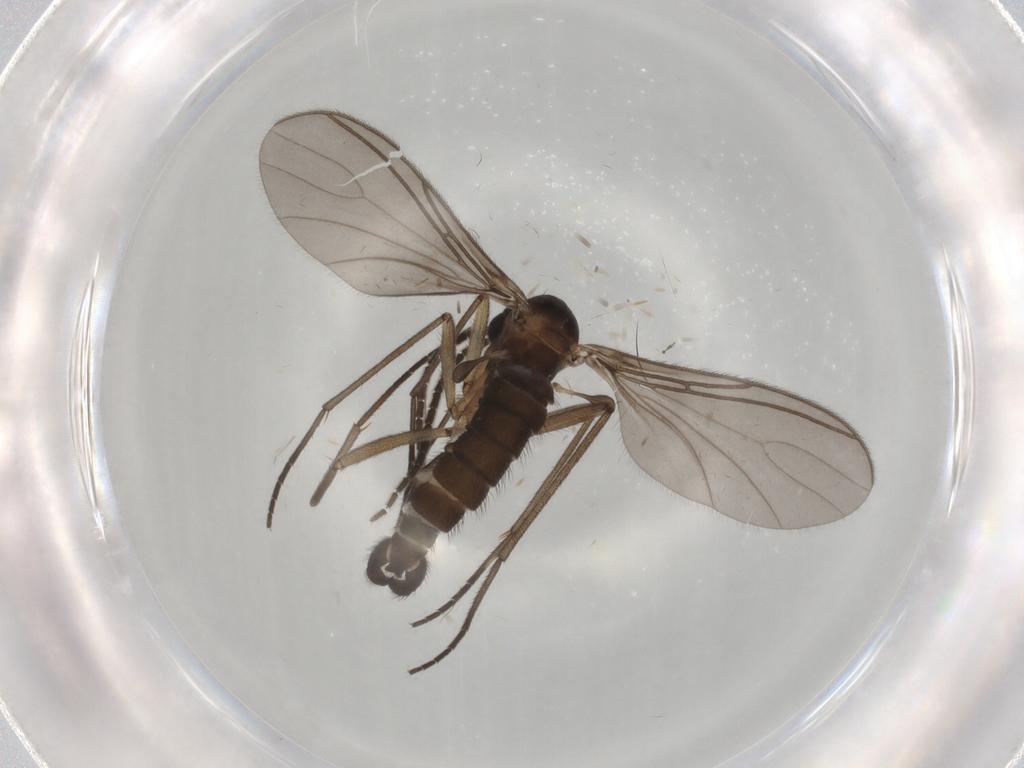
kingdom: Animalia
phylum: Arthropoda
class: Insecta
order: Diptera
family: Sciaridae
